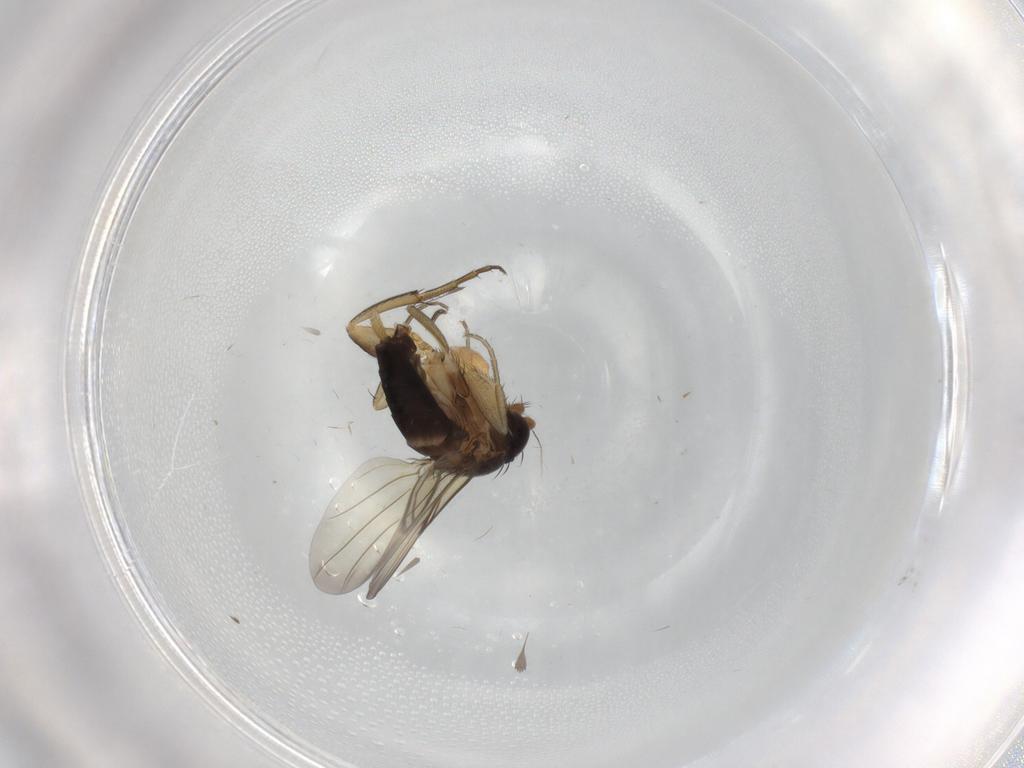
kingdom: Animalia
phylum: Arthropoda
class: Insecta
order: Diptera
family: Phoridae
